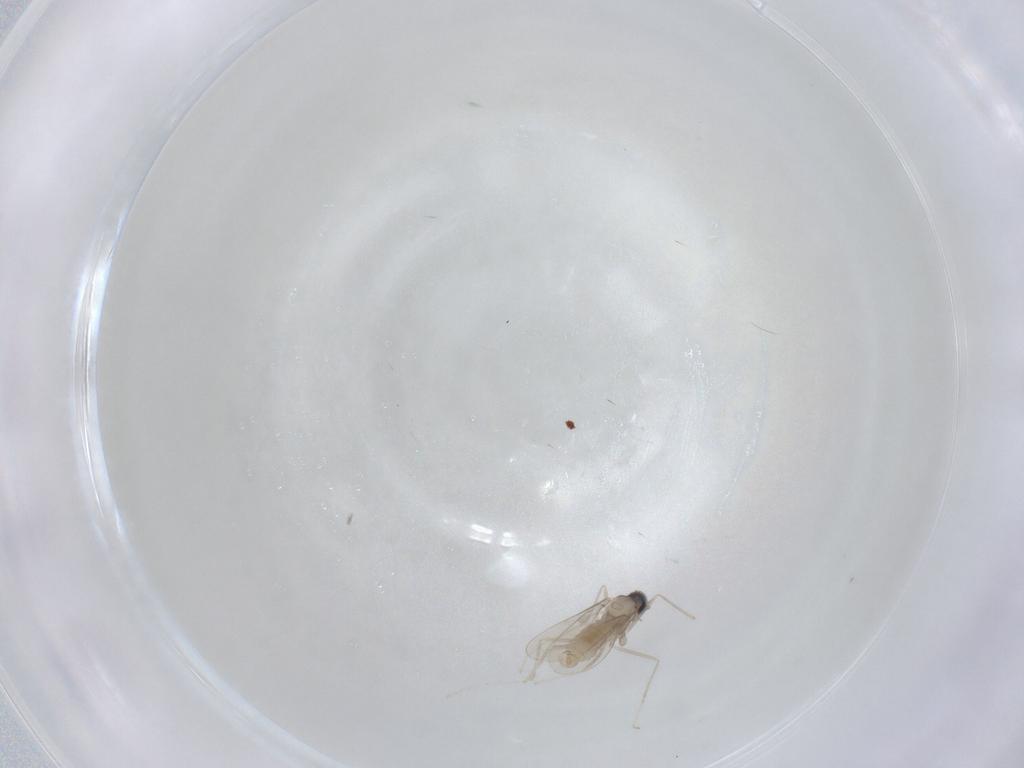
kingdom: Animalia
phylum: Arthropoda
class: Insecta
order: Diptera
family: Cecidomyiidae
